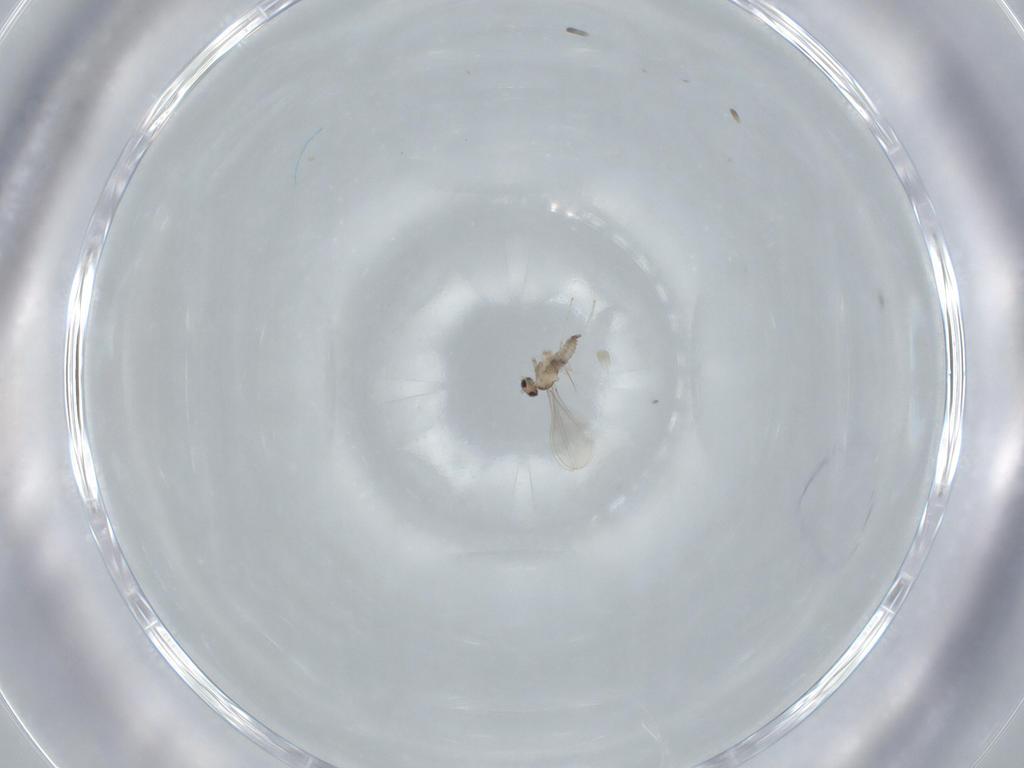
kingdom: Animalia
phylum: Arthropoda
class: Insecta
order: Diptera
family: Cecidomyiidae
